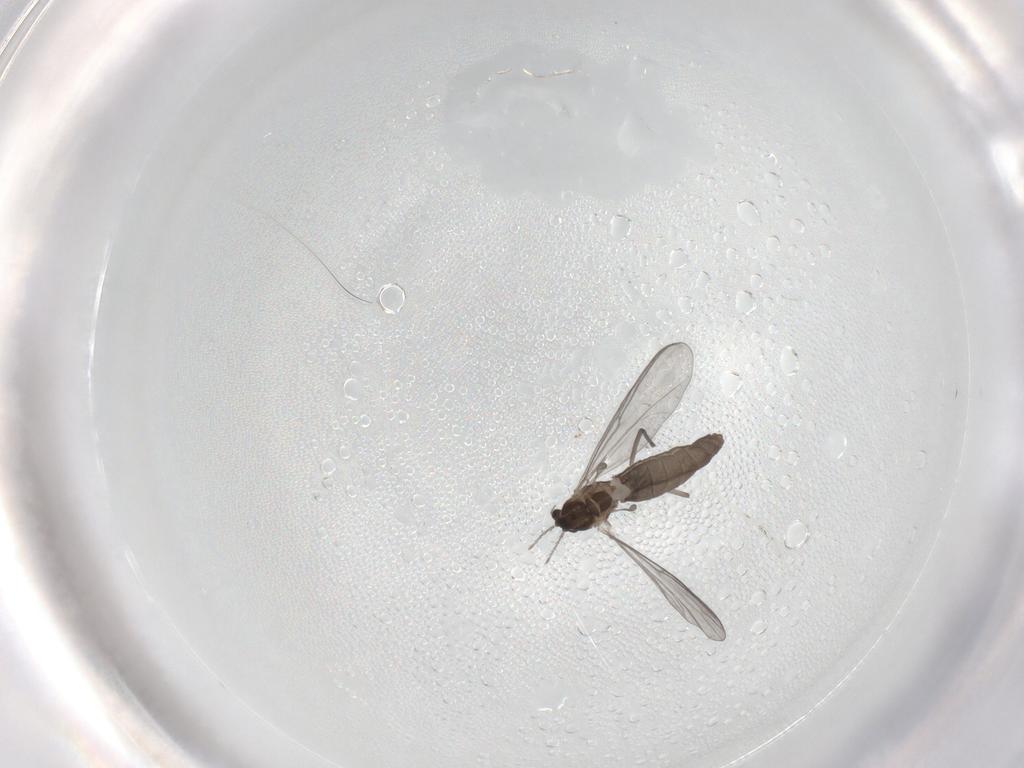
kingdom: Animalia
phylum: Arthropoda
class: Insecta
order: Diptera
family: Chironomidae
